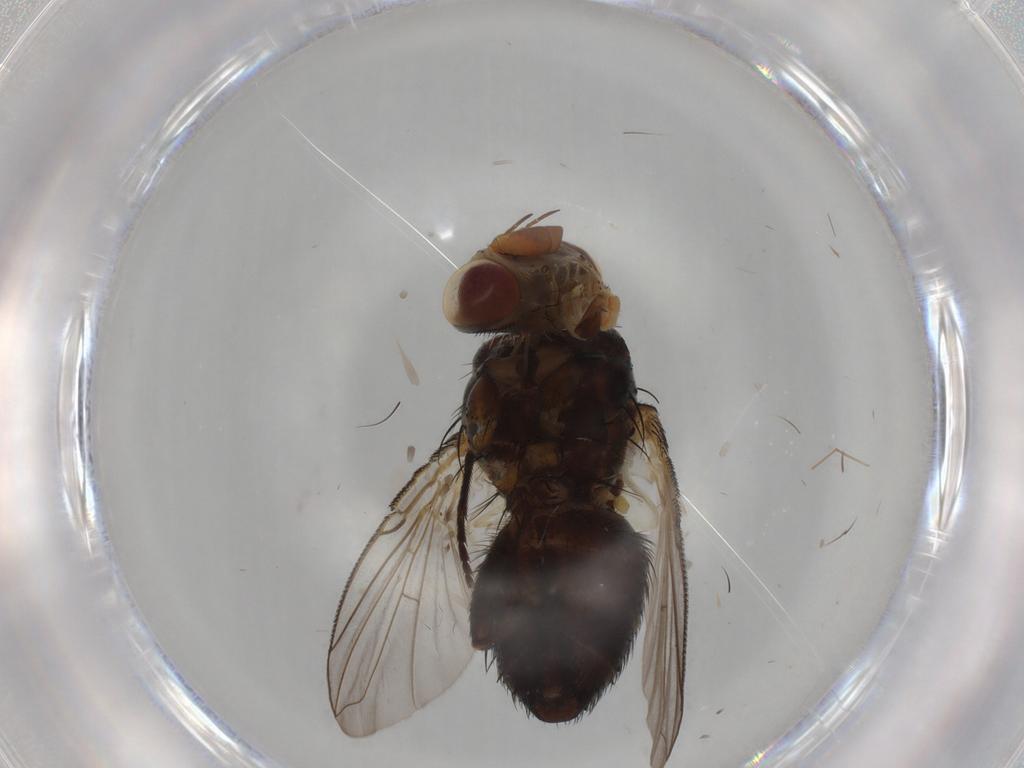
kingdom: Animalia
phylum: Arthropoda
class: Insecta
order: Diptera
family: Tachinidae
